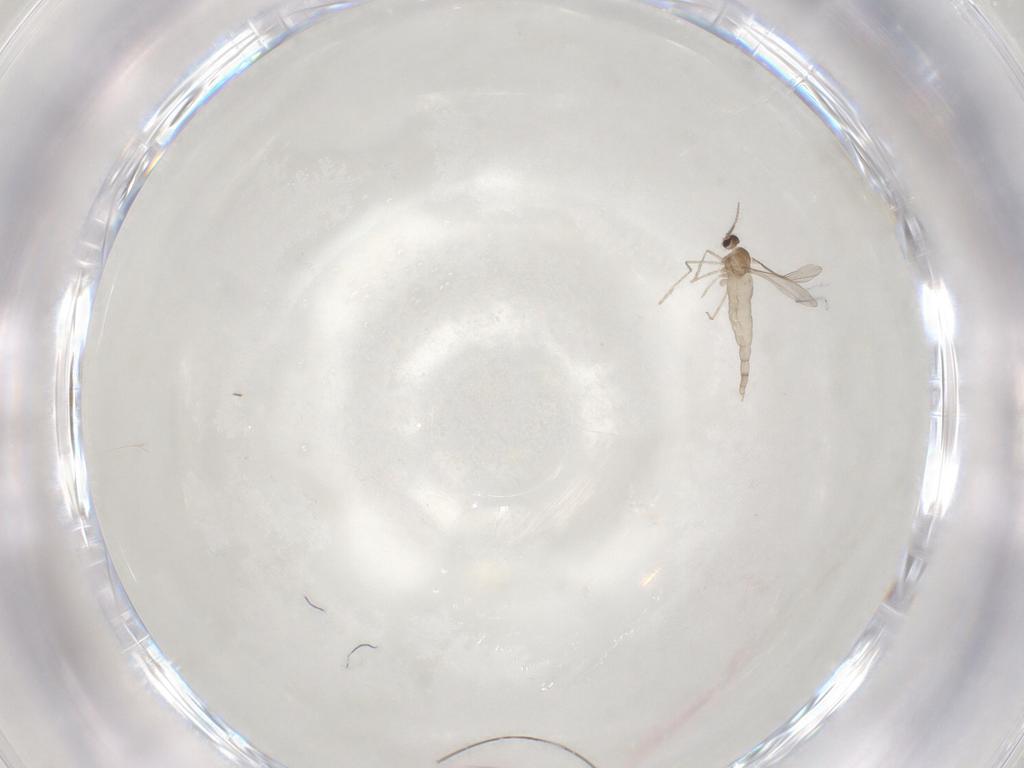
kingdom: Animalia
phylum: Arthropoda
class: Insecta
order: Diptera
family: Cecidomyiidae
